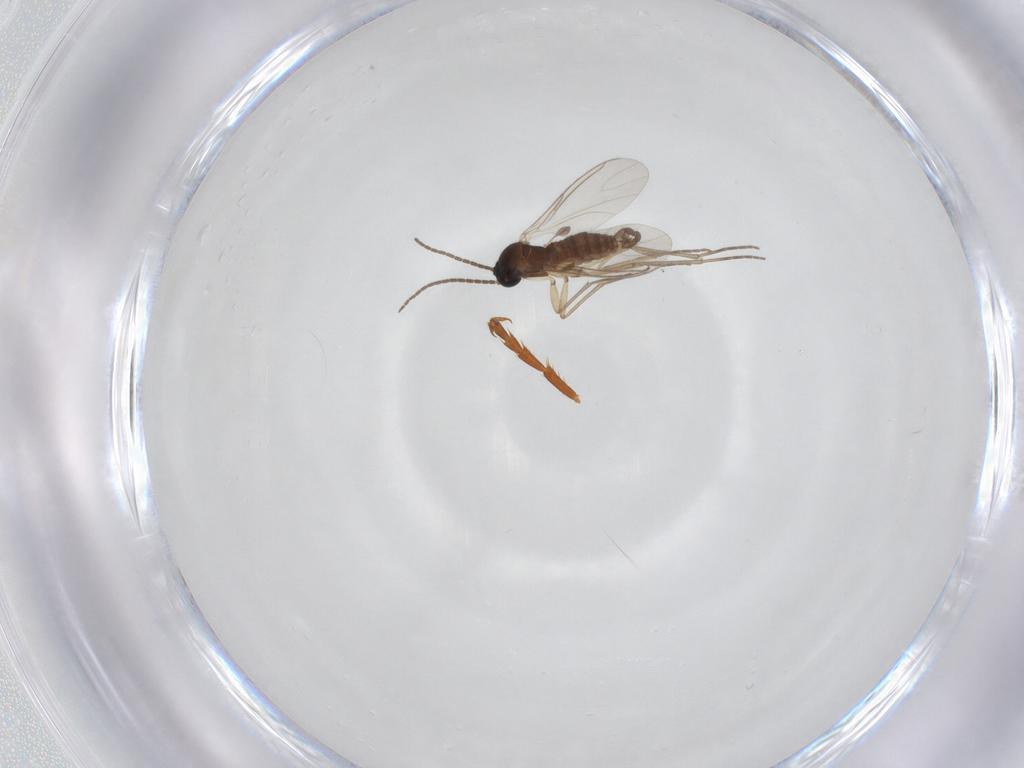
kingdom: Animalia
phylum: Arthropoda
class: Insecta
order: Diptera
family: Sciaridae
